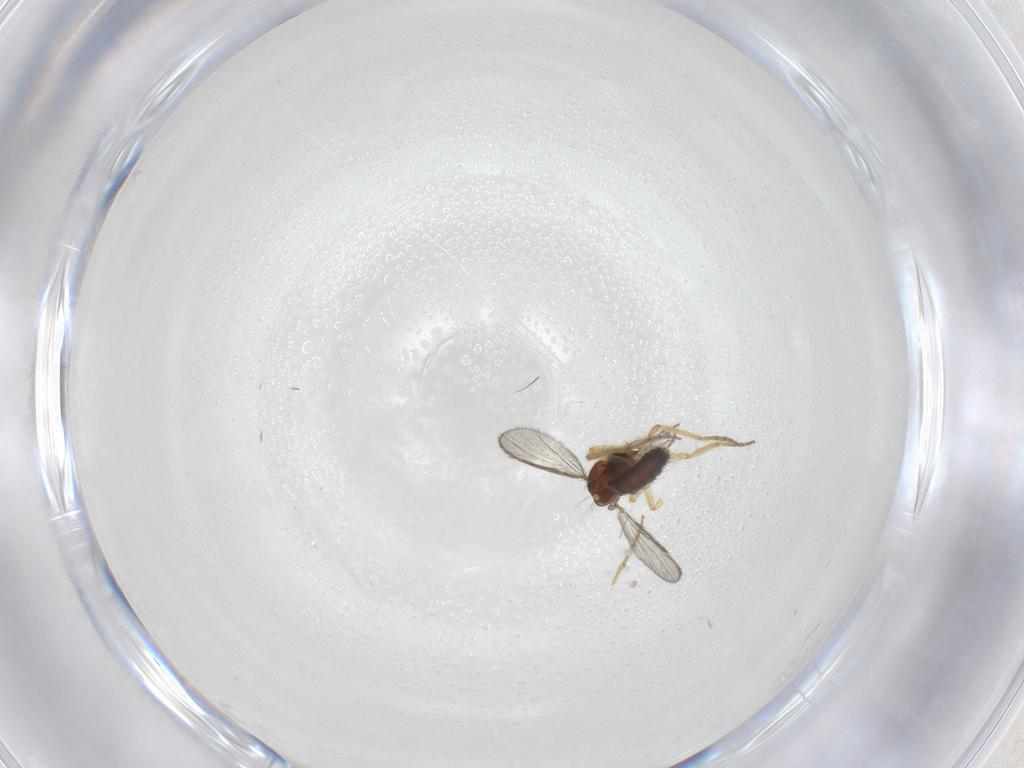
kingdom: Animalia
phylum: Arthropoda
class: Insecta
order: Diptera
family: Ceratopogonidae
